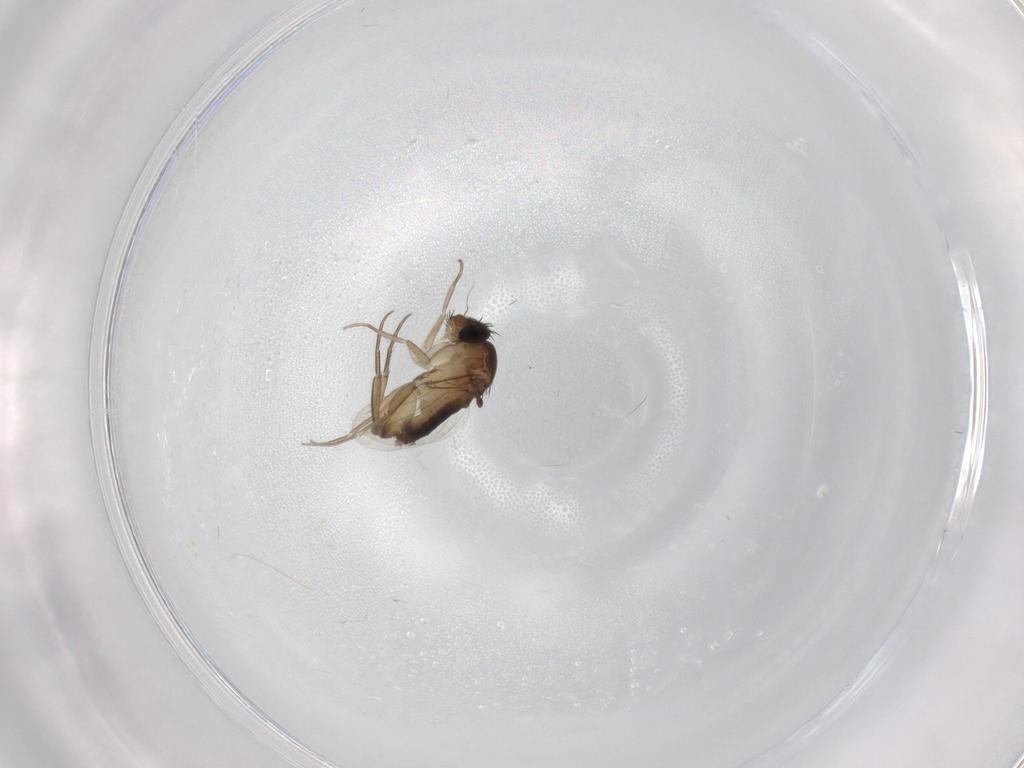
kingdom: Animalia
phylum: Arthropoda
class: Insecta
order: Diptera
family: Phoridae
